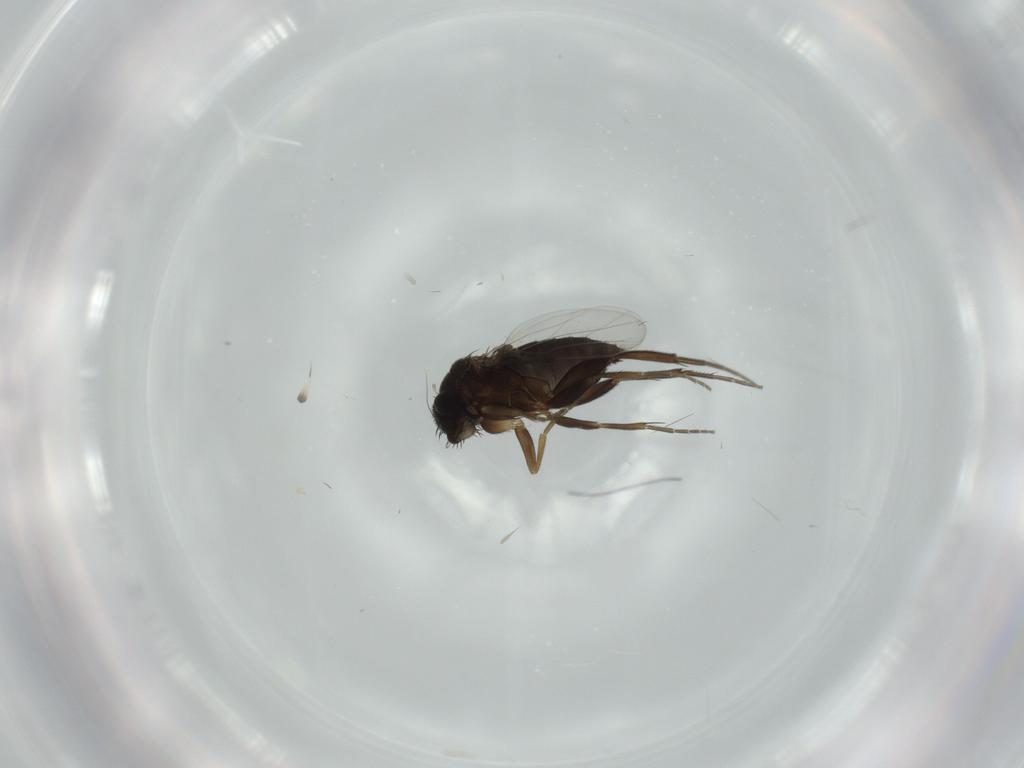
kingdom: Animalia
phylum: Arthropoda
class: Insecta
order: Diptera
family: Phoridae
